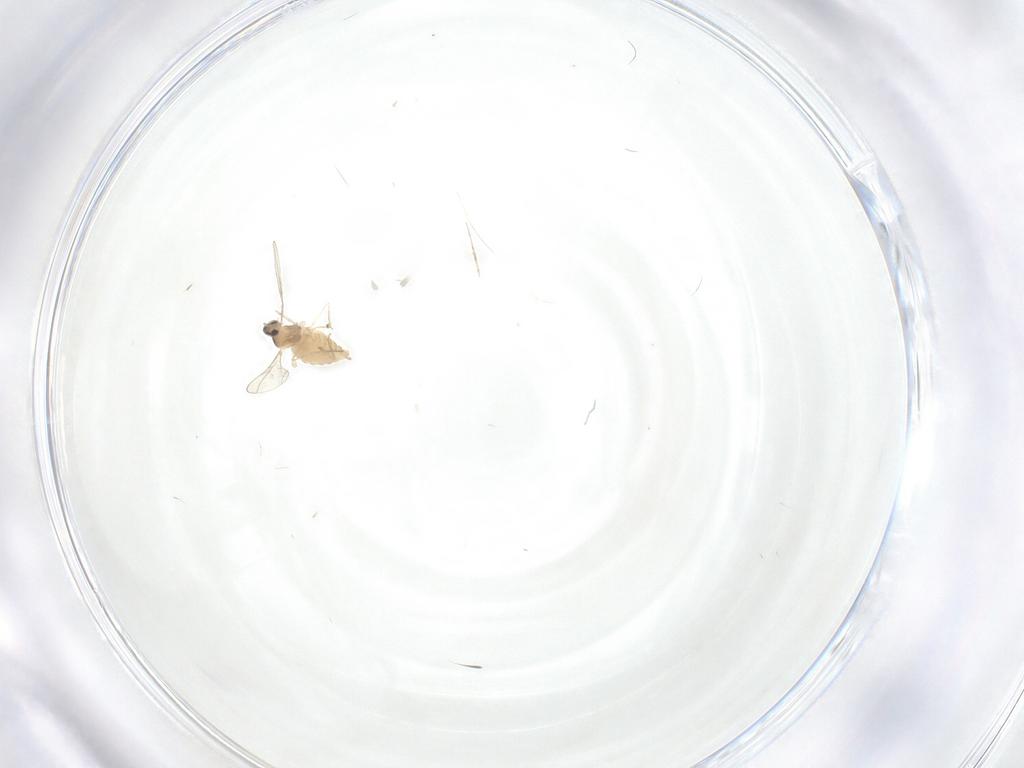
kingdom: Animalia
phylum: Arthropoda
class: Insecta
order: Diptera
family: Cecidomyiidae
